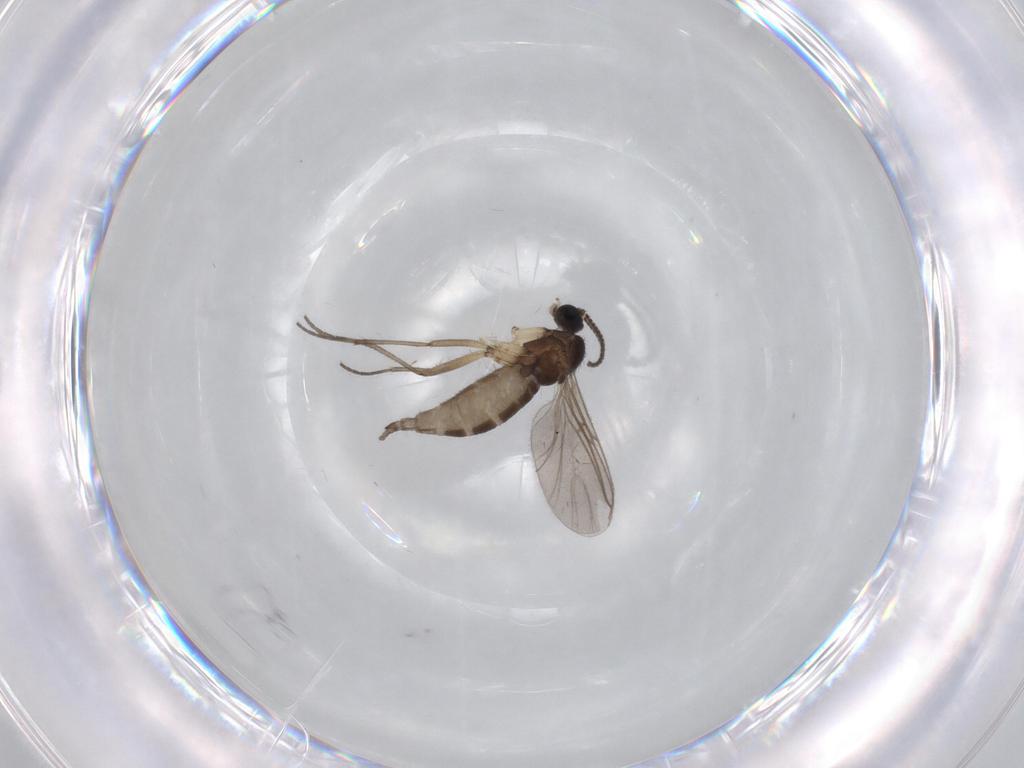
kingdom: Animalia
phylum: Arthropoda
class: Insecta
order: Diptera
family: Sciaridae
